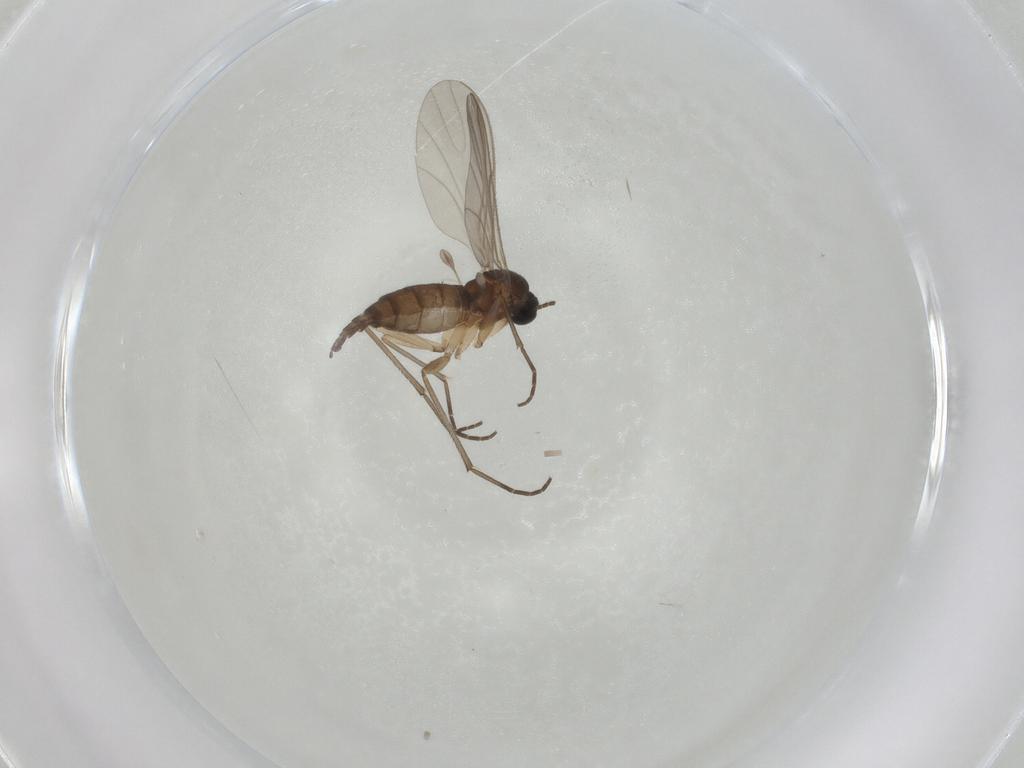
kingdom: Animalia
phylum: Arthropoda
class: Insecta
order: Diptera
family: Sciaridae
